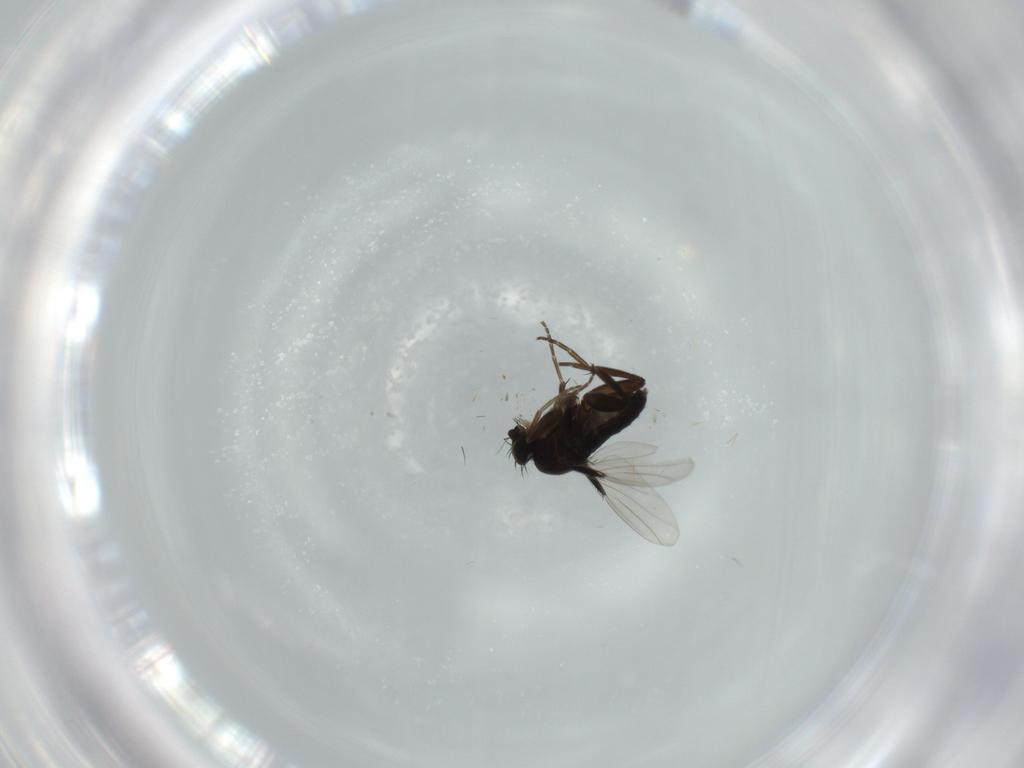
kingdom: Animalia
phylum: Arthropoda
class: Insecta
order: Diptera
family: Phoridae
